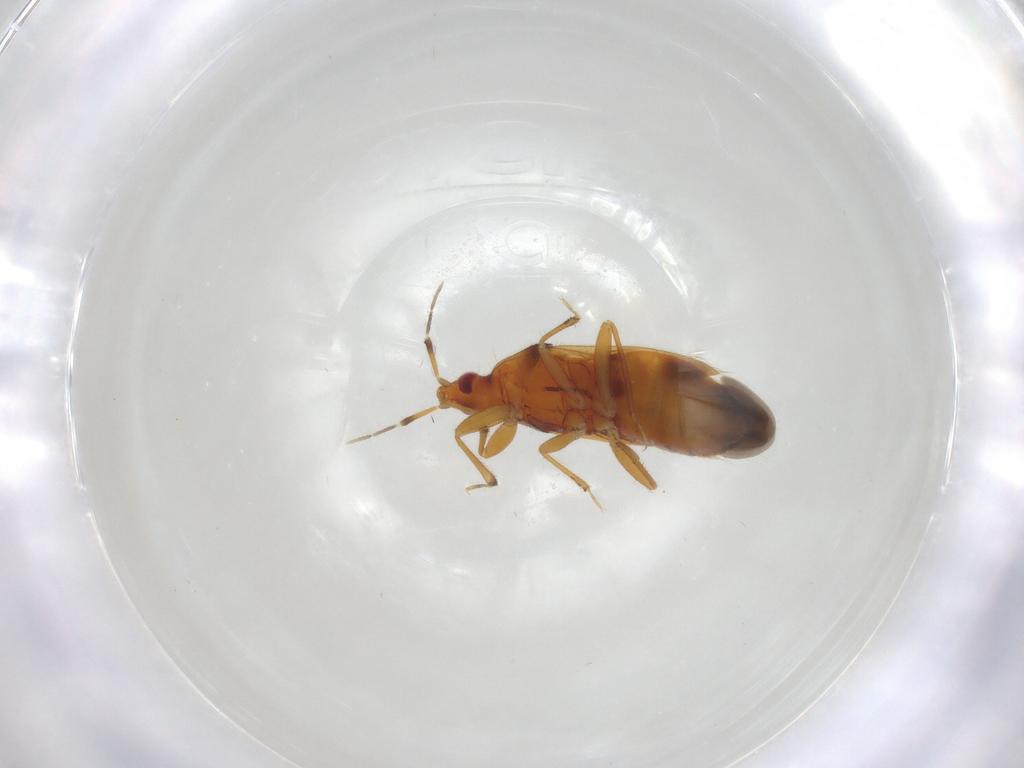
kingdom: Animalia
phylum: Arthropoda
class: Insecta
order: Hemiptera
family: Anthocoridae
